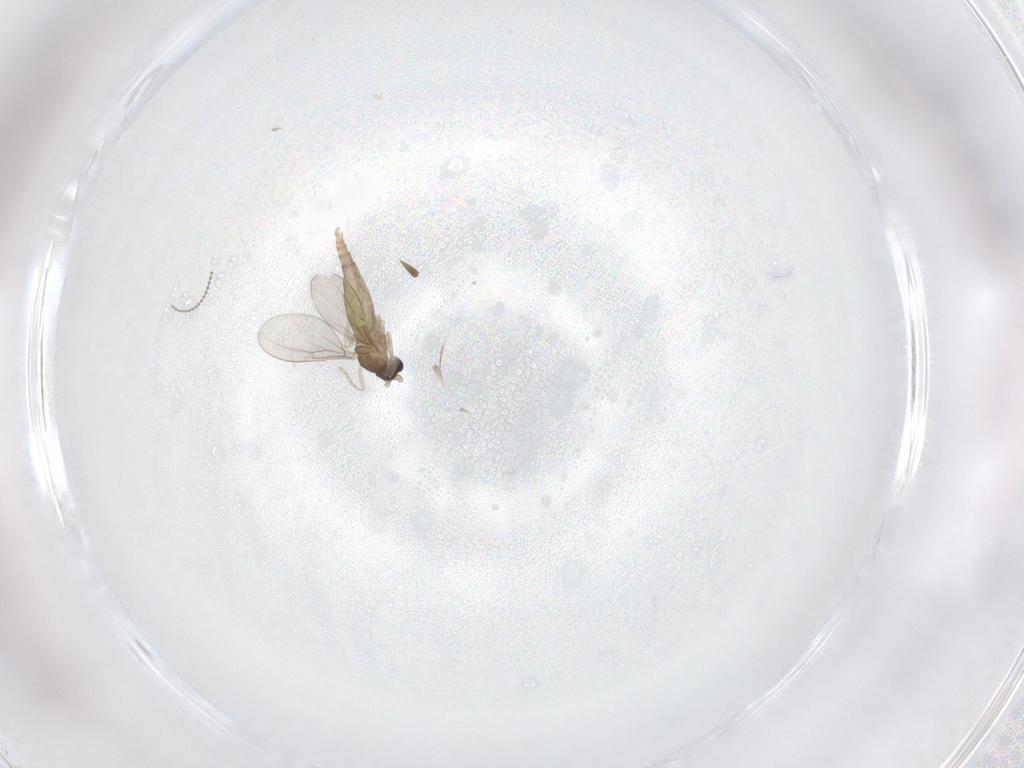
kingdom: Animalia
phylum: Arthropoda
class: Insecta
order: Diptera
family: Cecidomyiidae
